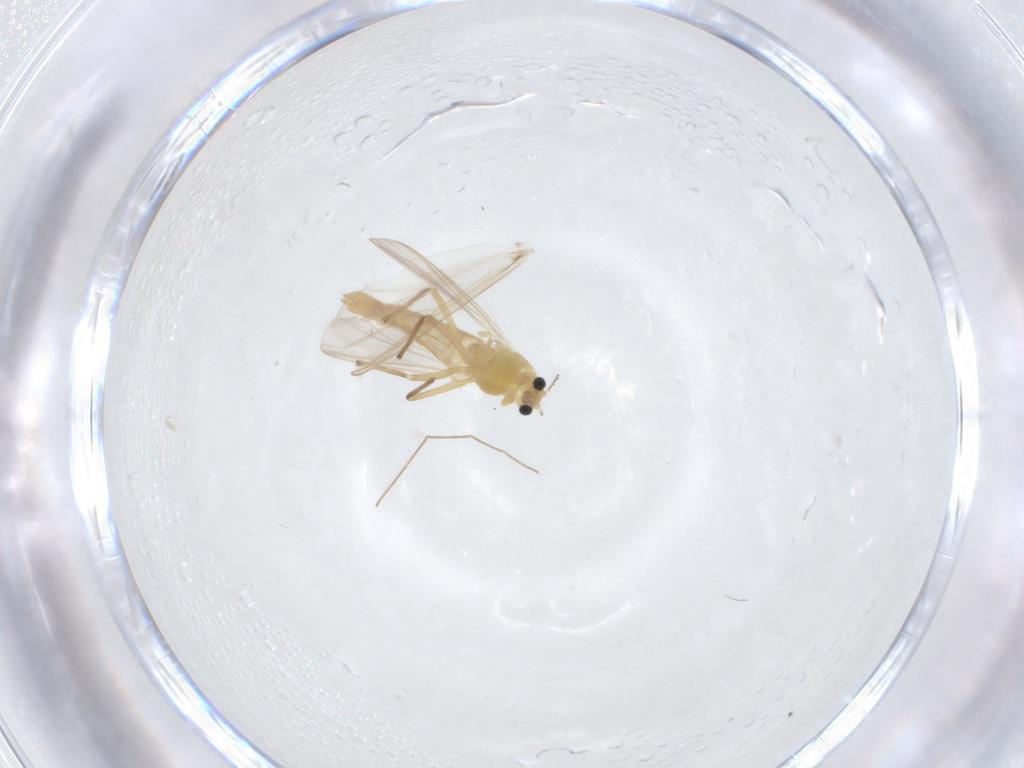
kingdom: Animalia
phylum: Arthropoda
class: Insecta
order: Diptera
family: Chironomidae
